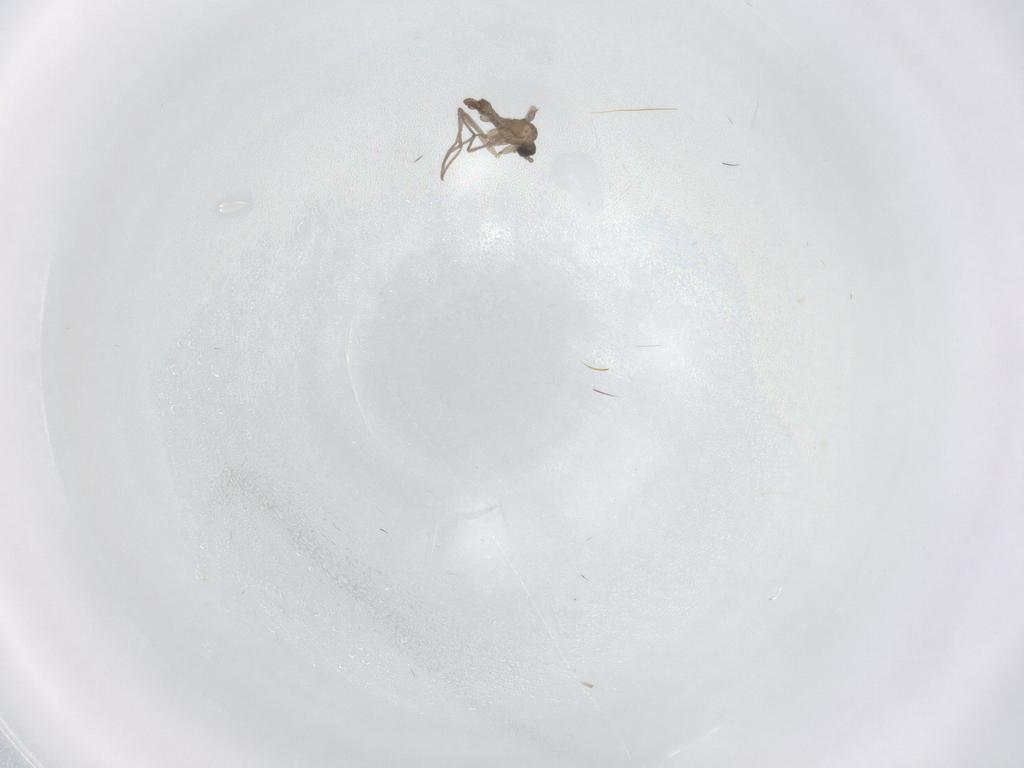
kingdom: Animalia
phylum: Arthropoda
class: Insecta
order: Diptera
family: Sciaridae
